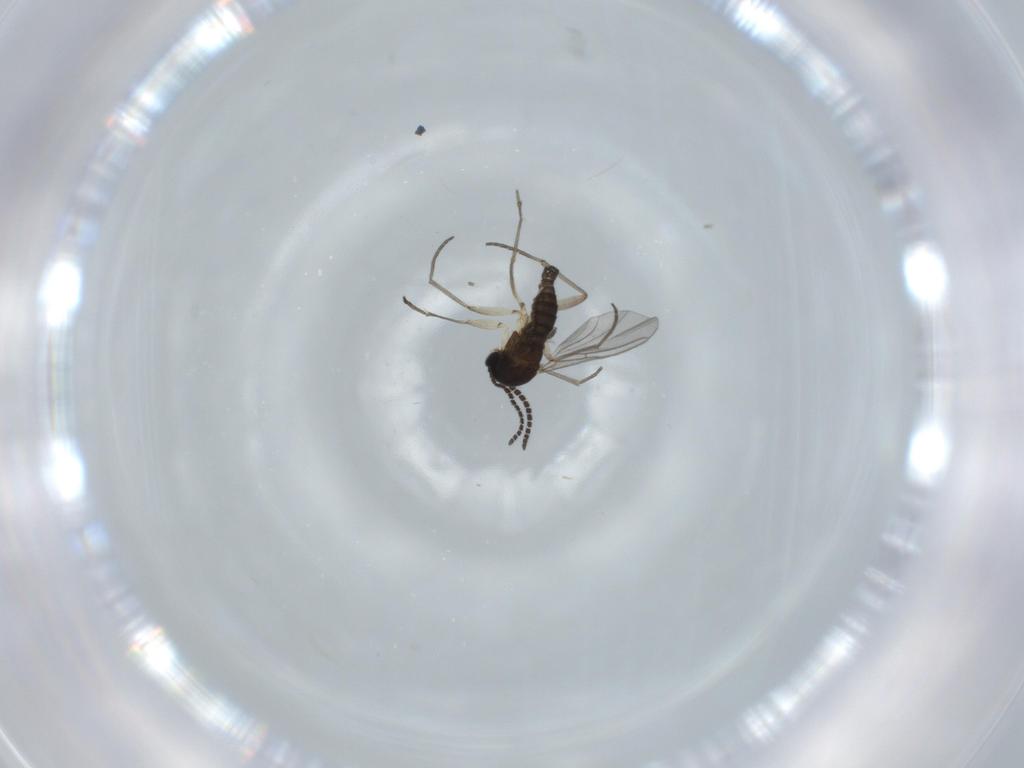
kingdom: Animalia
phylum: Arthropoda
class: Insecta
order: Diptera
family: Sciaridae
